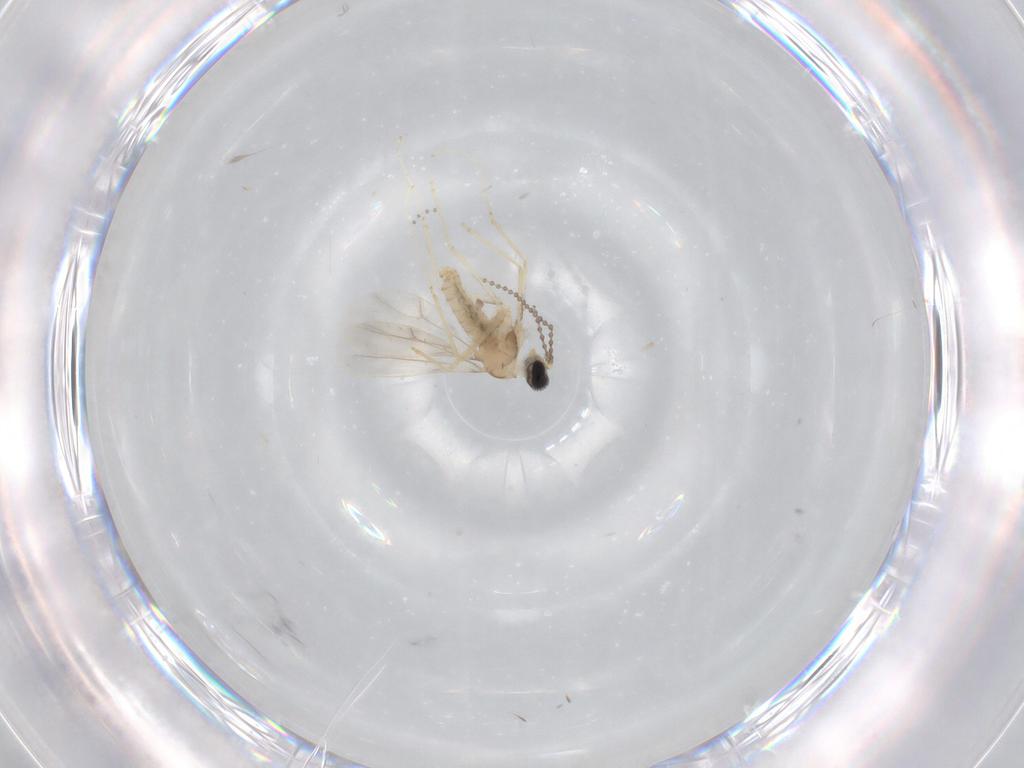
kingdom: Animalia
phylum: Arthropoda
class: Insecta
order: Diptera
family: Cecidomyiidae
